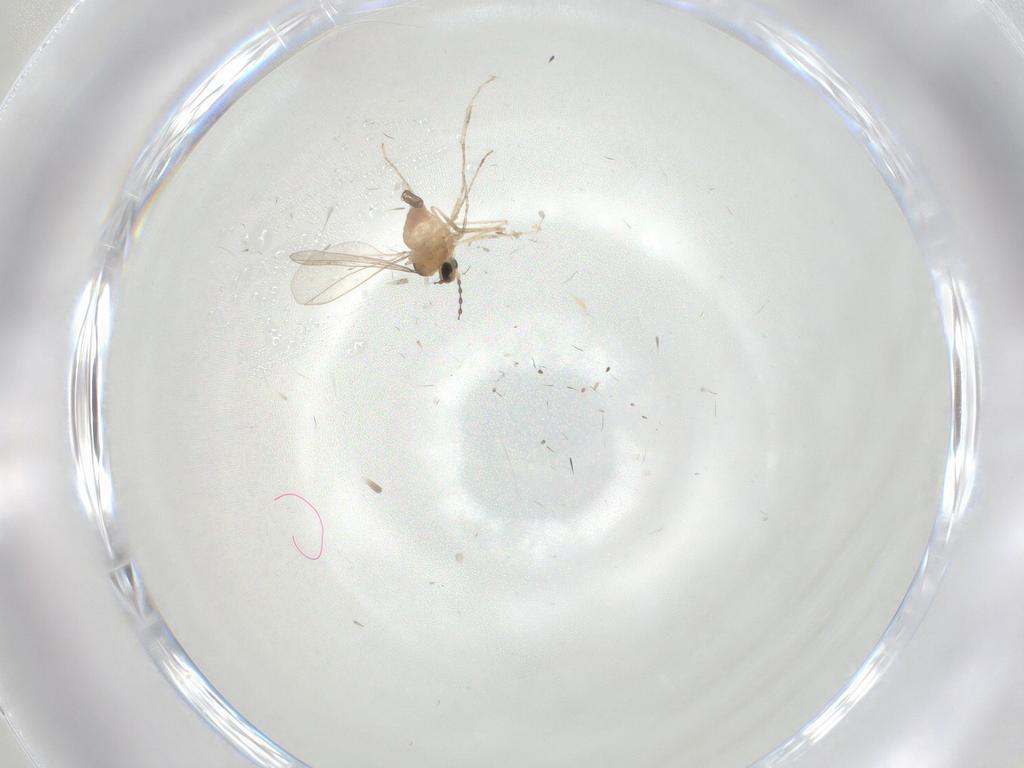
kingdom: Animalia
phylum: Arthropoda
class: Insecta
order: Diptera
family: Cecidomyiidae
